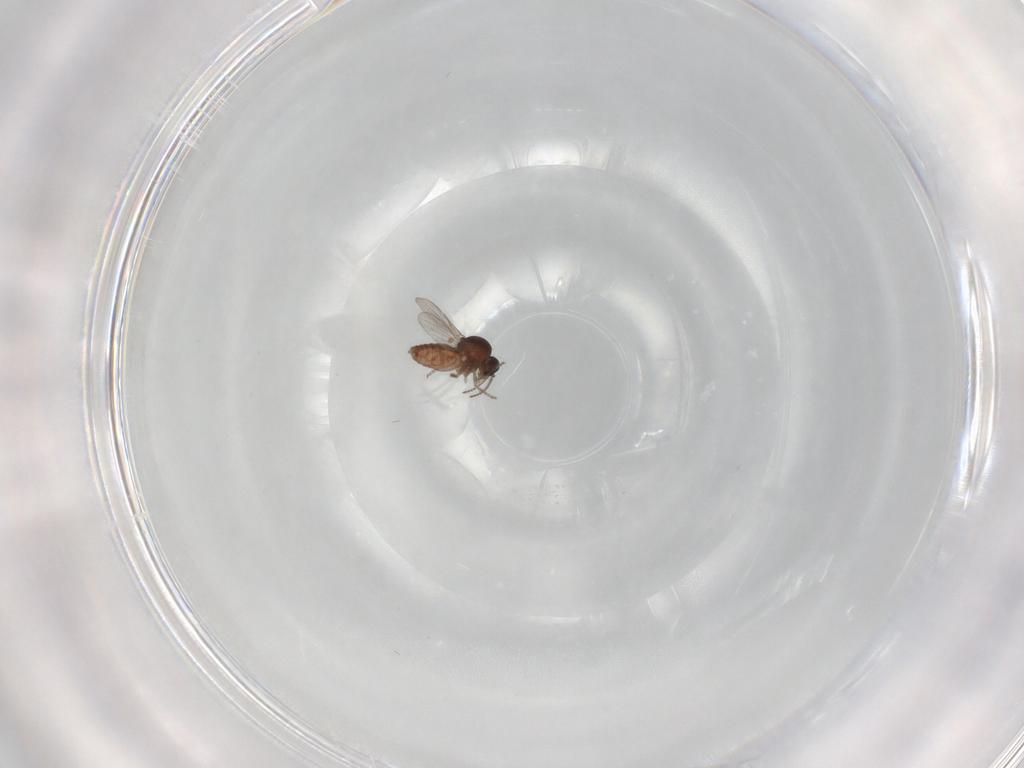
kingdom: Animalia
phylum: Arthropoda
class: Insecta
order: Diptera
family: Ceratopogonidae
